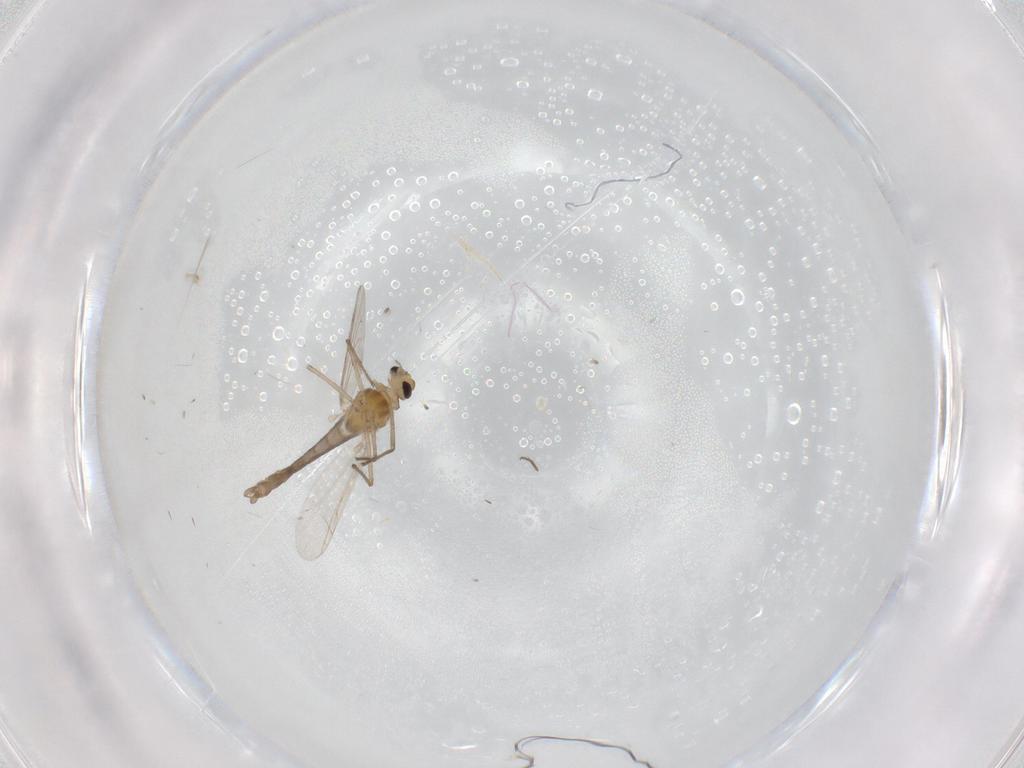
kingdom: Animalia
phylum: Arthropoda
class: Insecta
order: Diptera
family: Chironomidae
